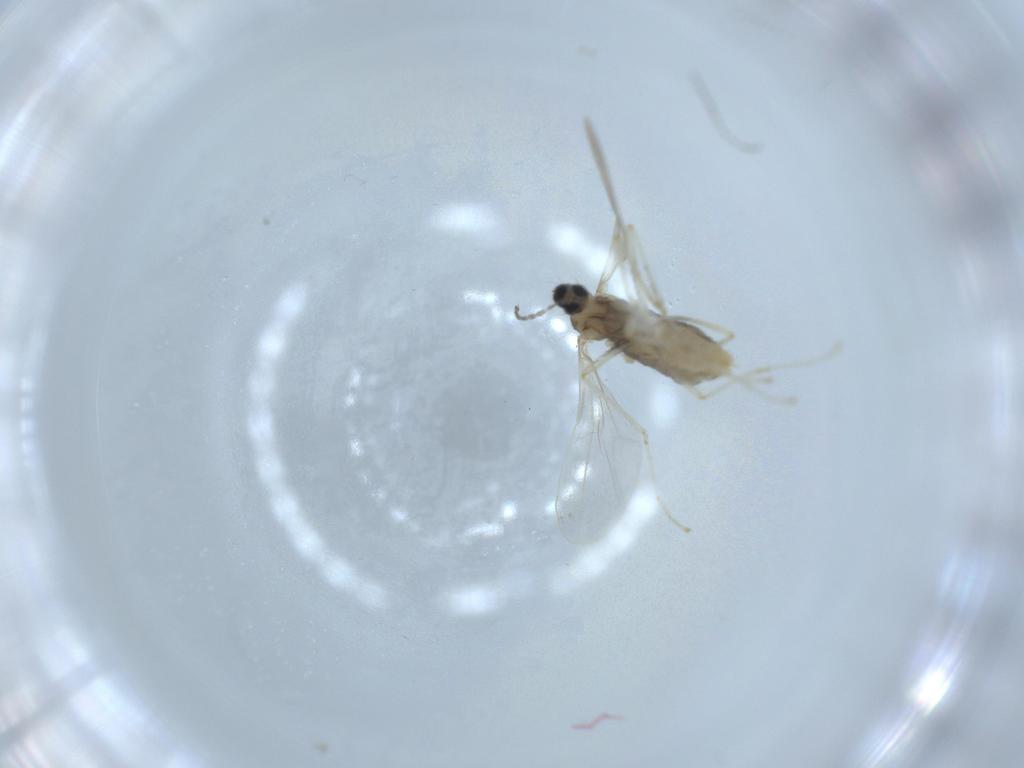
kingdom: Animalia
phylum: Arthropoda
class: Insecta
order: Diptera
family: Cecidomyiidae
